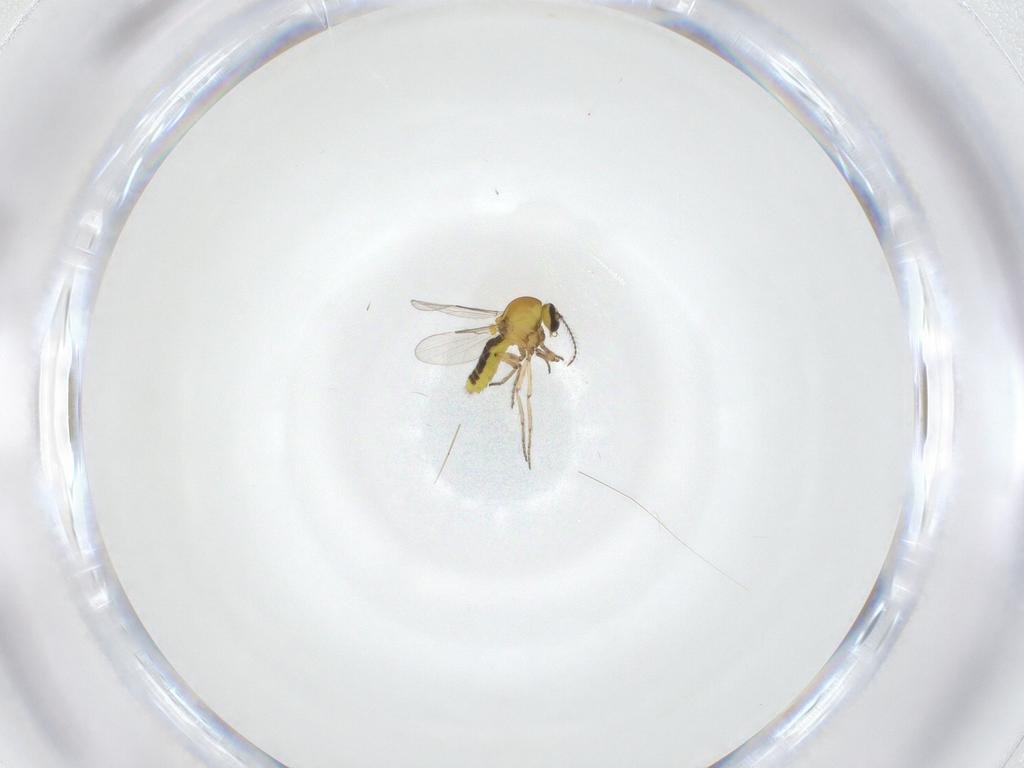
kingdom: Animalia
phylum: Arthropoda
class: Insecta
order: Diptera
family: Ceratopogonidae
